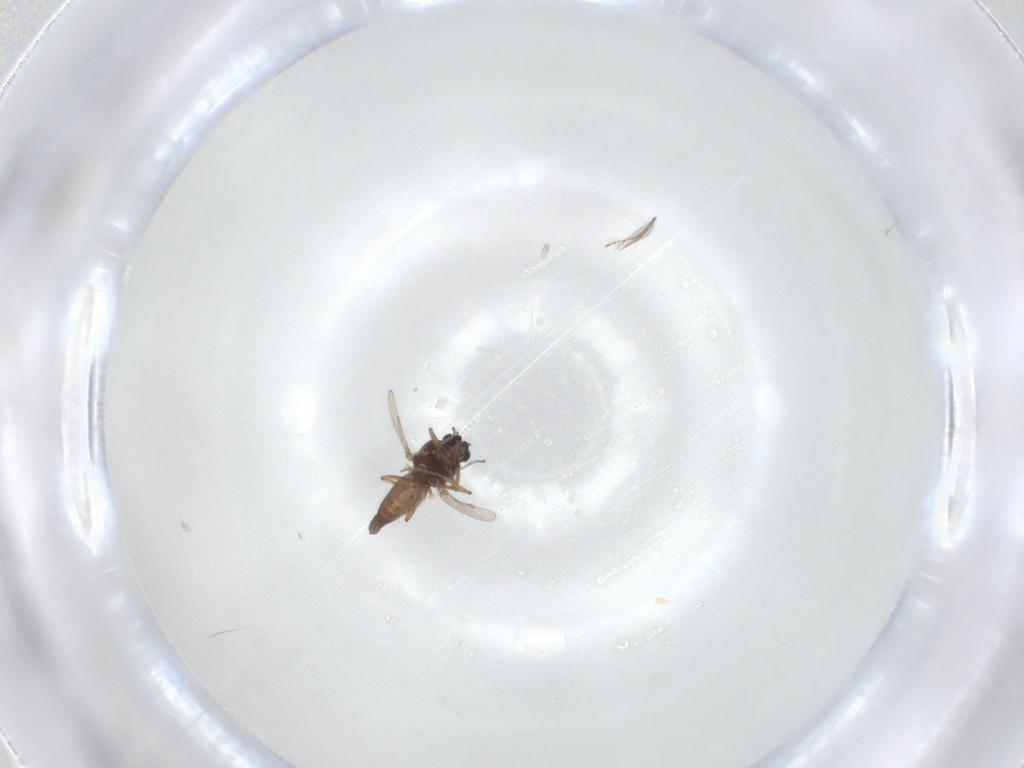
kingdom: Animalia
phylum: Arthropoda
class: Insecta
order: Diptera
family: Ceratopogonidae
